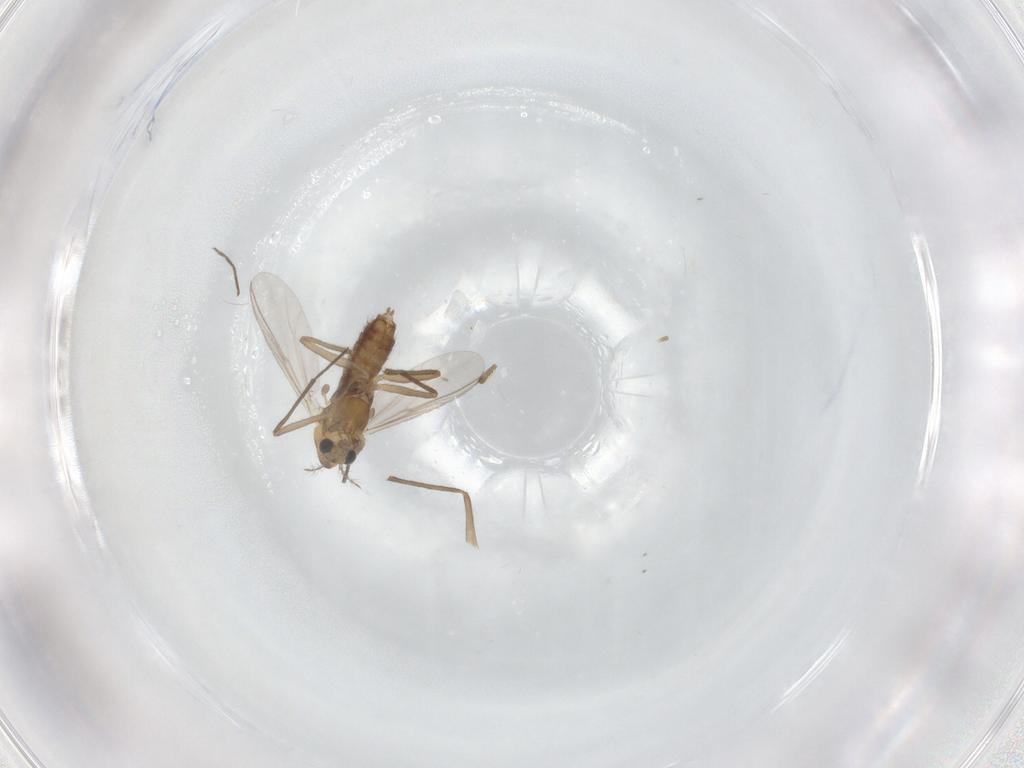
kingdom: Animalia
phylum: Arthropoda
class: Insecta
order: Diptera
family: Chironomidae
